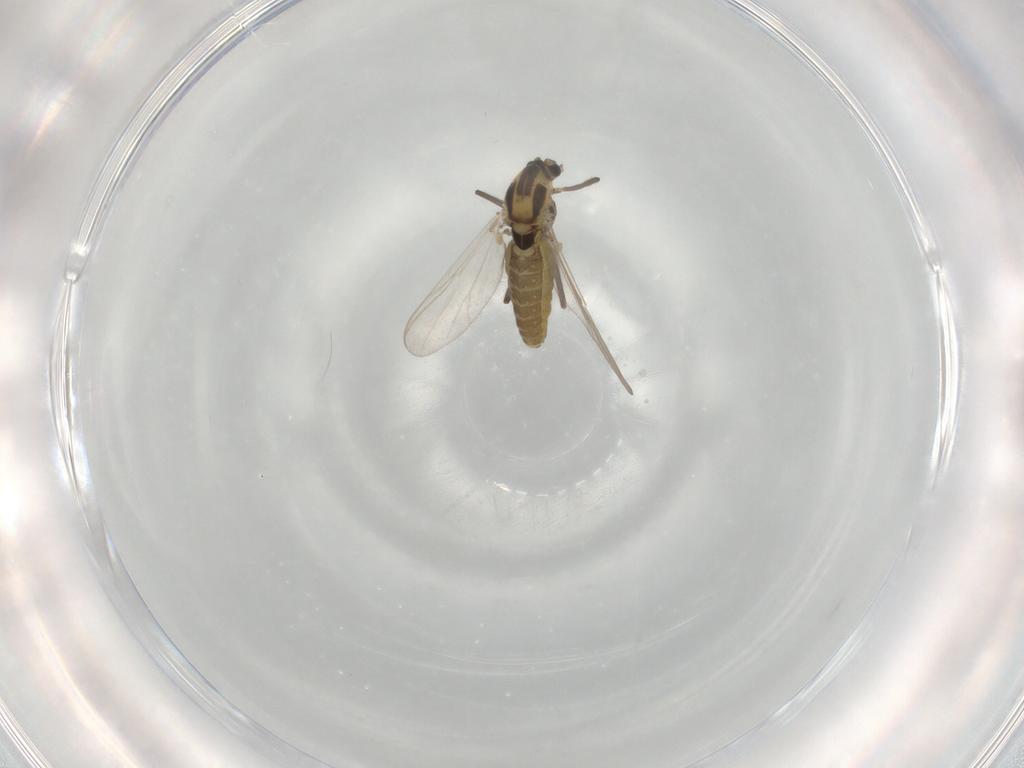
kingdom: Animalia
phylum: Arthropoda
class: Insecta
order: Diptera
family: Chironomidae
